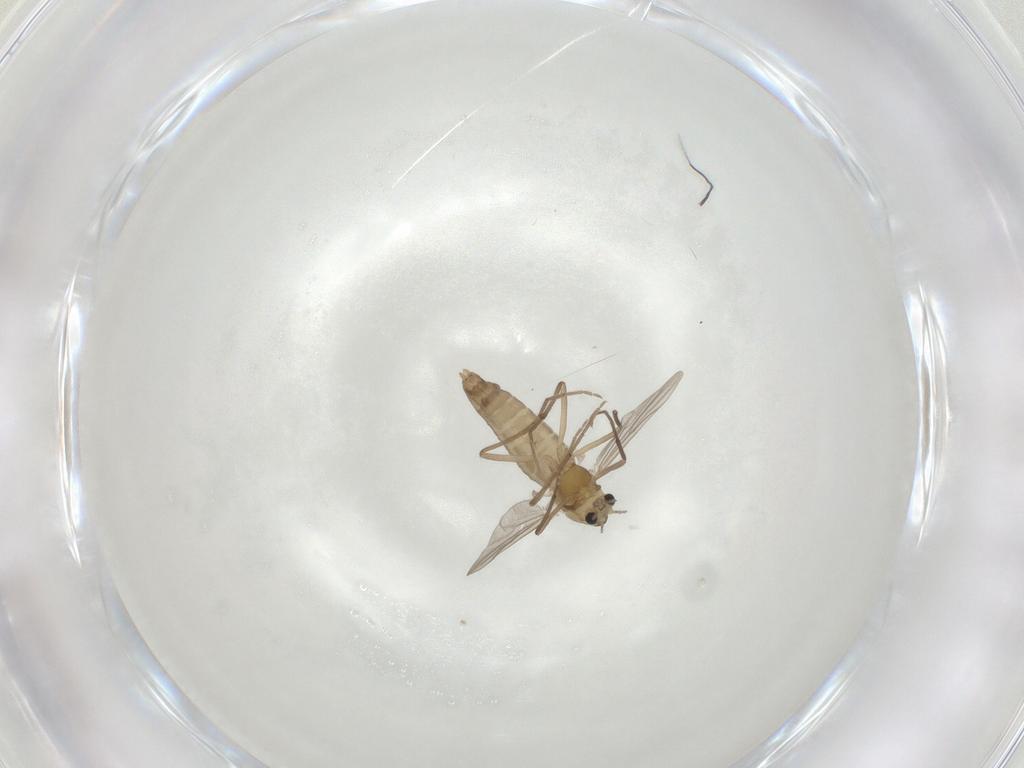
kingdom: Animalia
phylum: Arthropoda
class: Insecta
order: Diptera
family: Chironomidae
